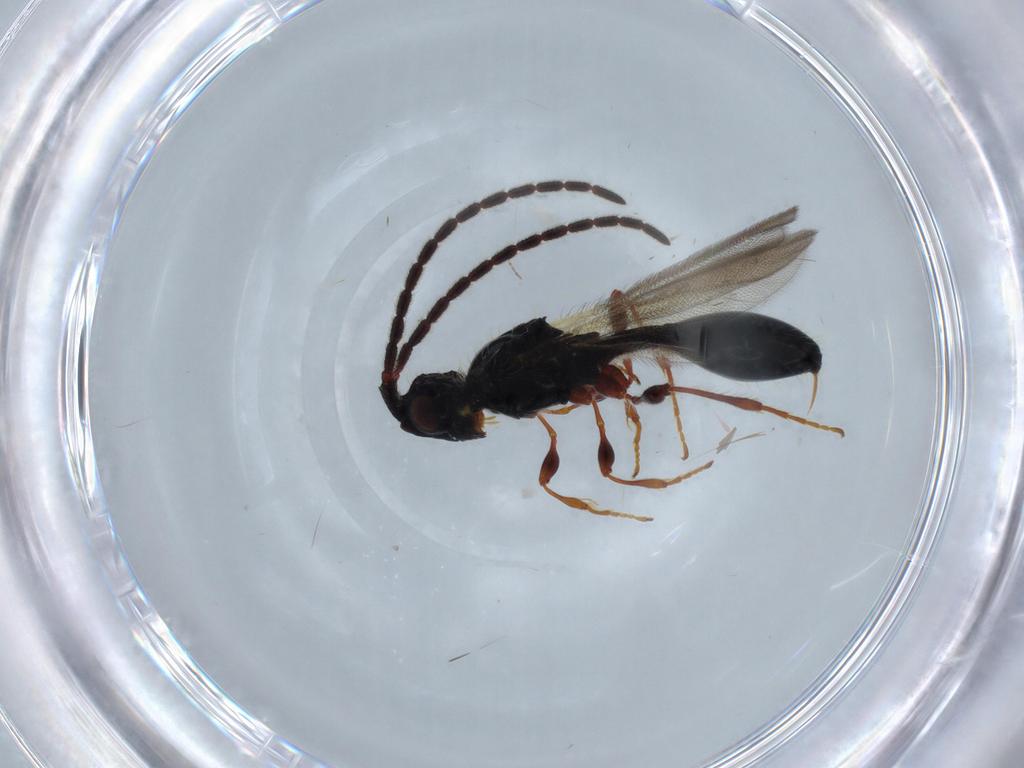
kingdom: Animalia
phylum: Arthropoda
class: Insecta
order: Hymenoptera
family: Diapriidae
